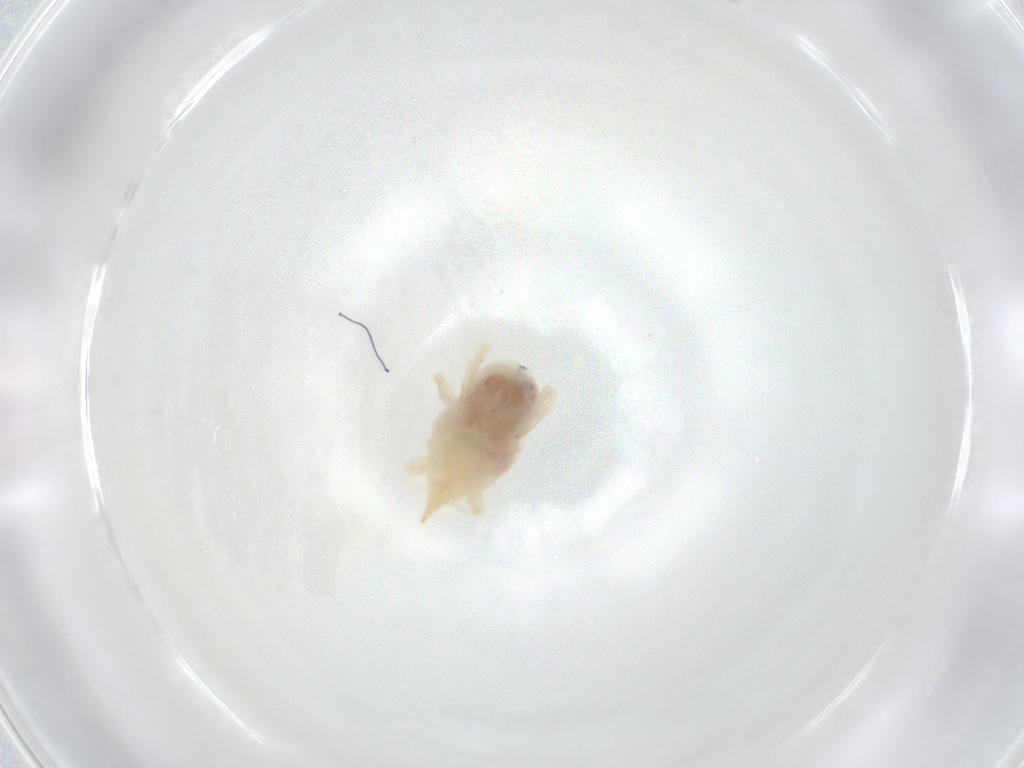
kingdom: Animalia
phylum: Arthropoda
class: Arachnida
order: Trombidiformes
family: Bdellidae
